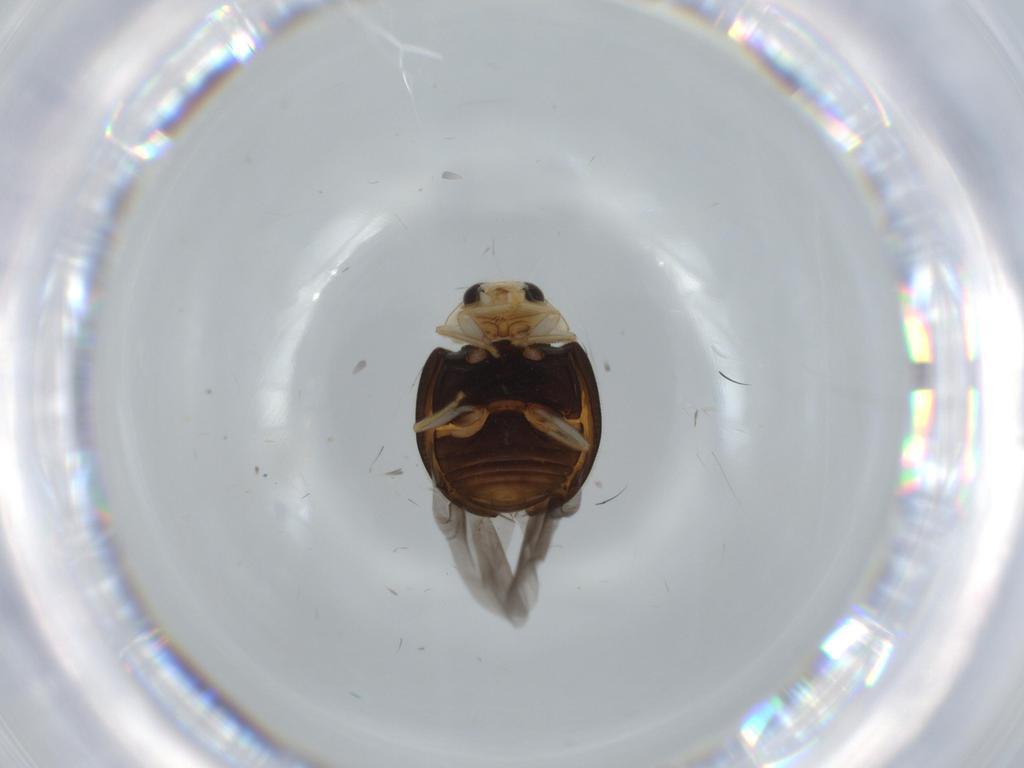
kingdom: Animalia
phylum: Arthropoda
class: Insecta
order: Coleoptera
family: Coccinellidae
